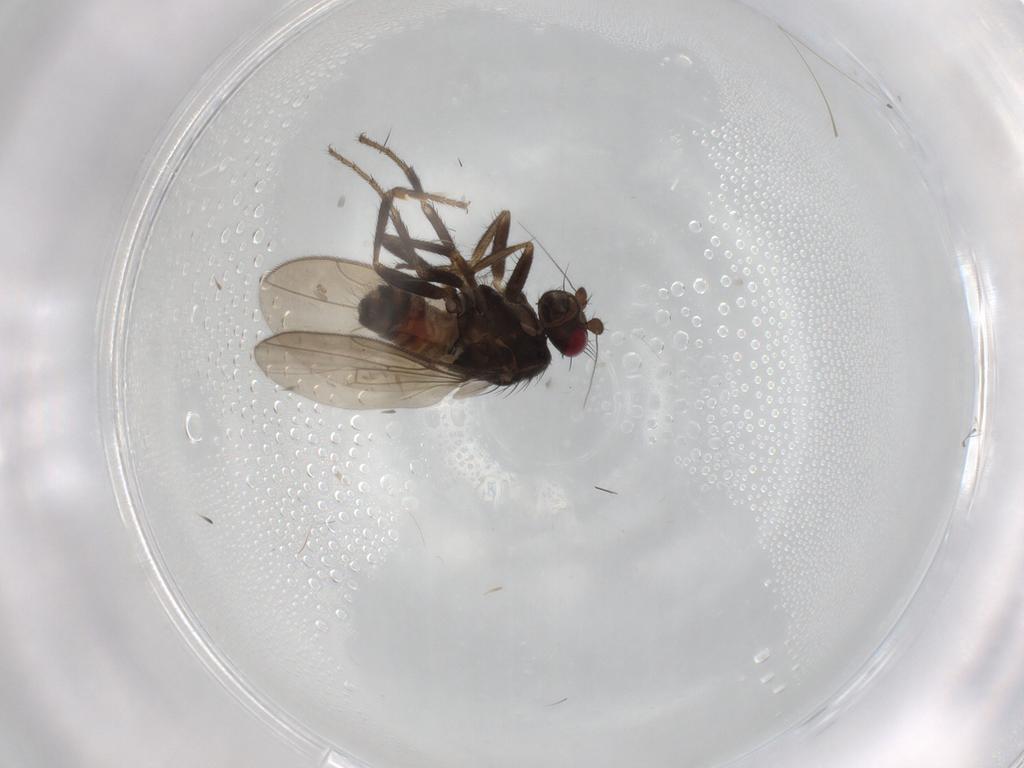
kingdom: Animalia
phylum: Arthropoda
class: Insecta
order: Diptera
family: Sphaeroceridae
